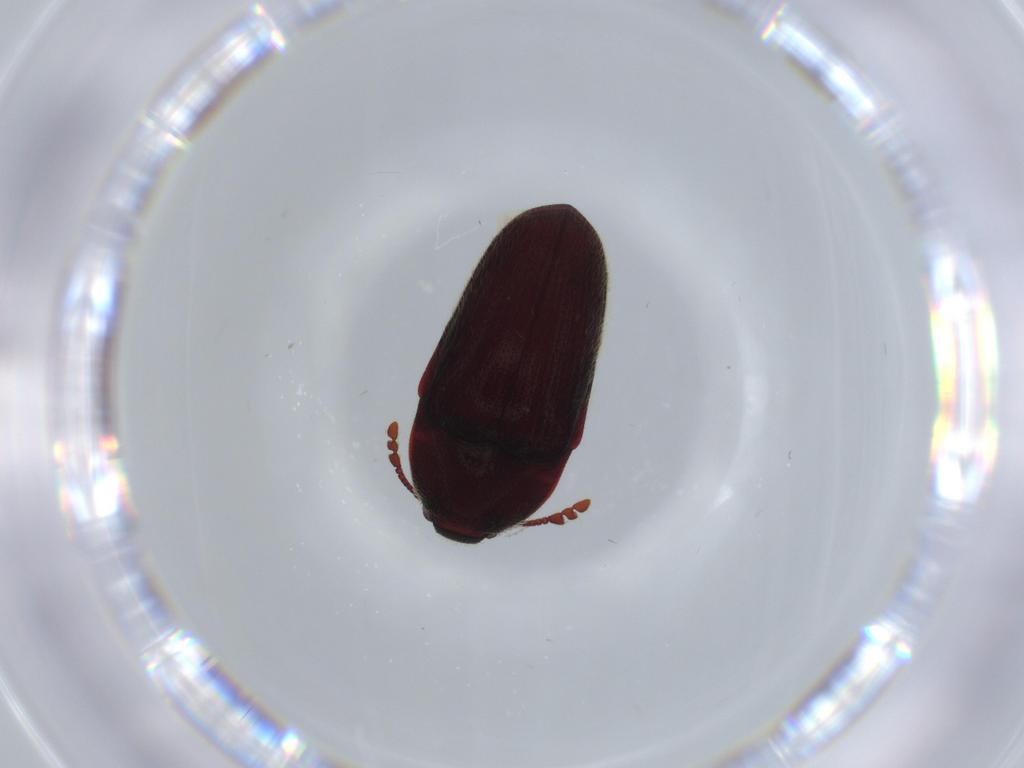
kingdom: Animalia
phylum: Arthropoda
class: Insecta
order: Coleoptera
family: Throscidae
